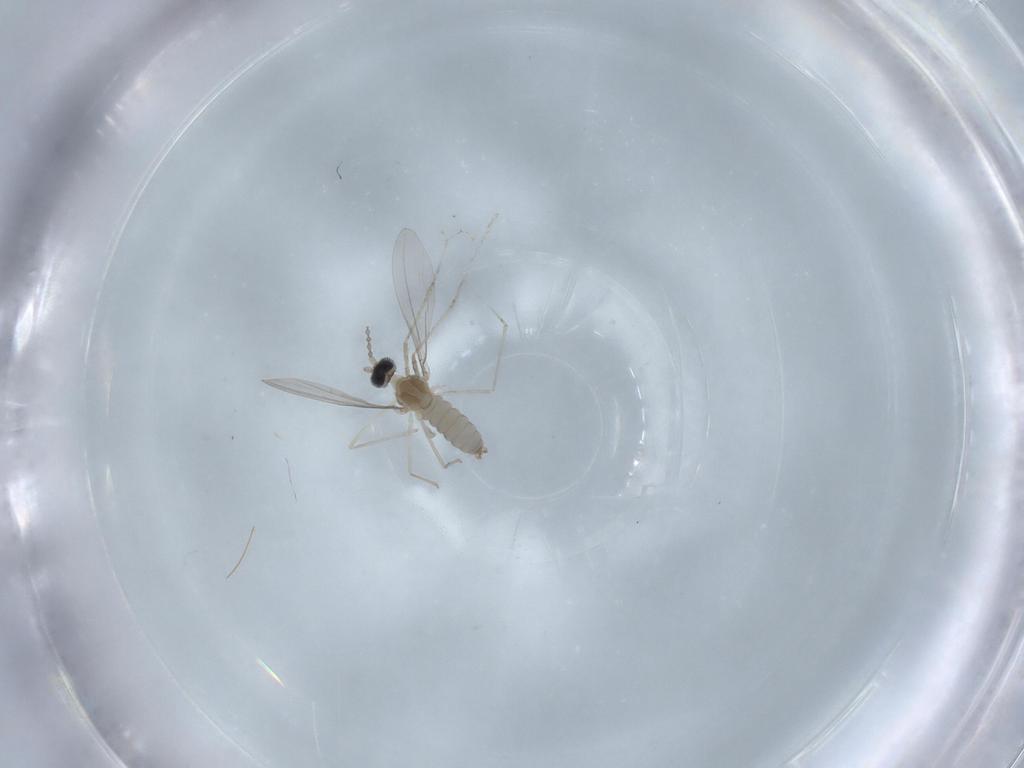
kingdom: Animalia
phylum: Arthropoda
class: Insecta
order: Diptera
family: Cecidomyiidae
